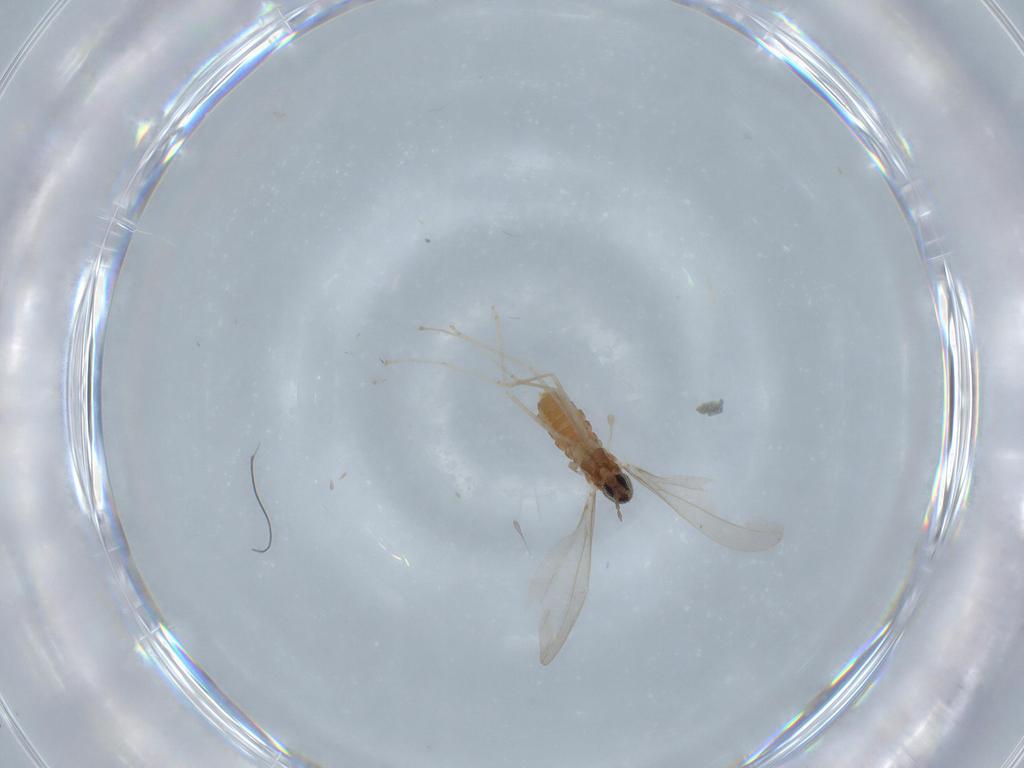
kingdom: Animalia
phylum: Arthropoda
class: Insecta
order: Diptera
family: Cecidomyiidae
